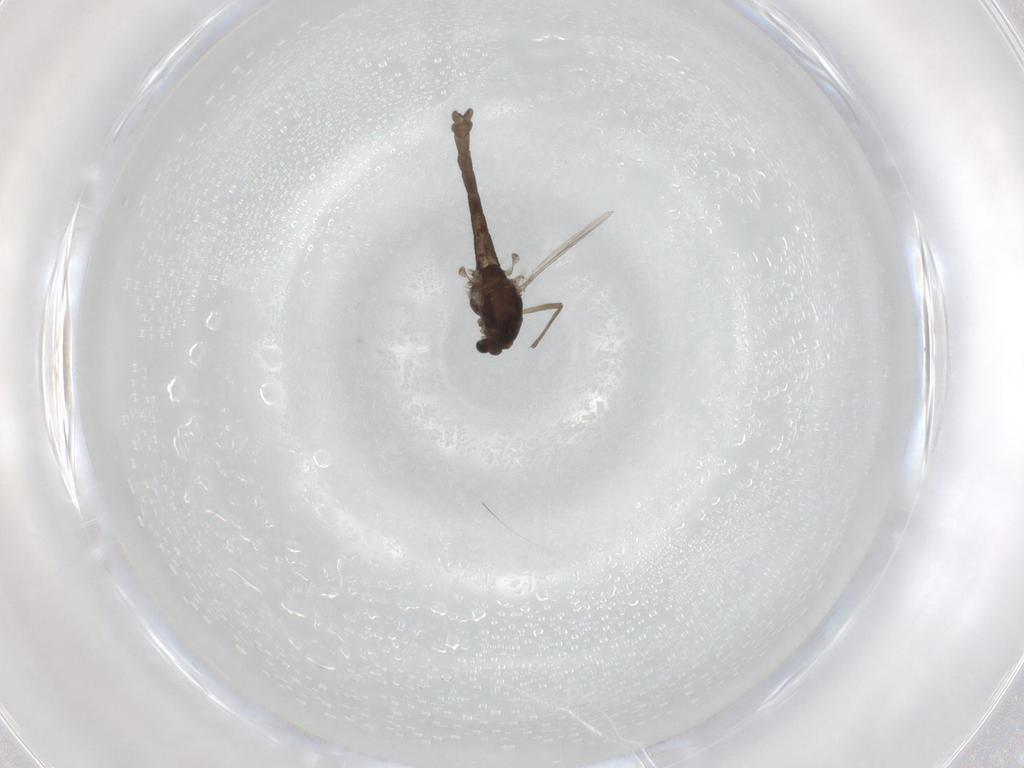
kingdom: Animalia
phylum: Arthropoda
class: Insecta
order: Diptera
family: Chironomidae
